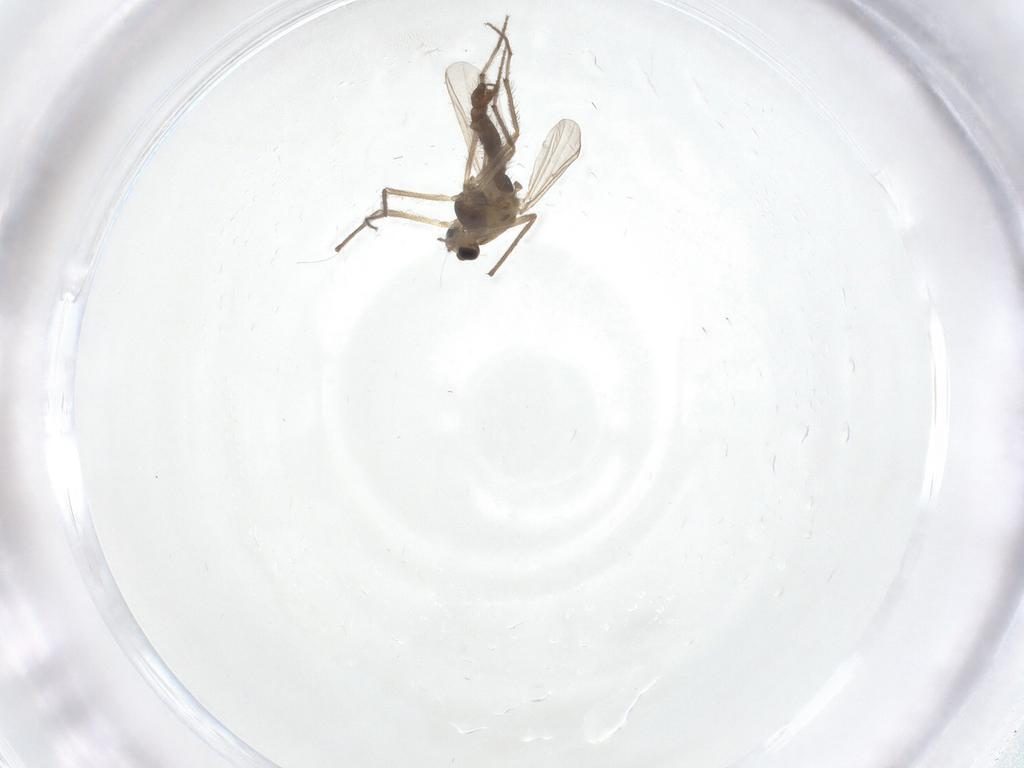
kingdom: Animalia
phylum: Arthropoda
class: Insecta
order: Diptera
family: Chironomidae
